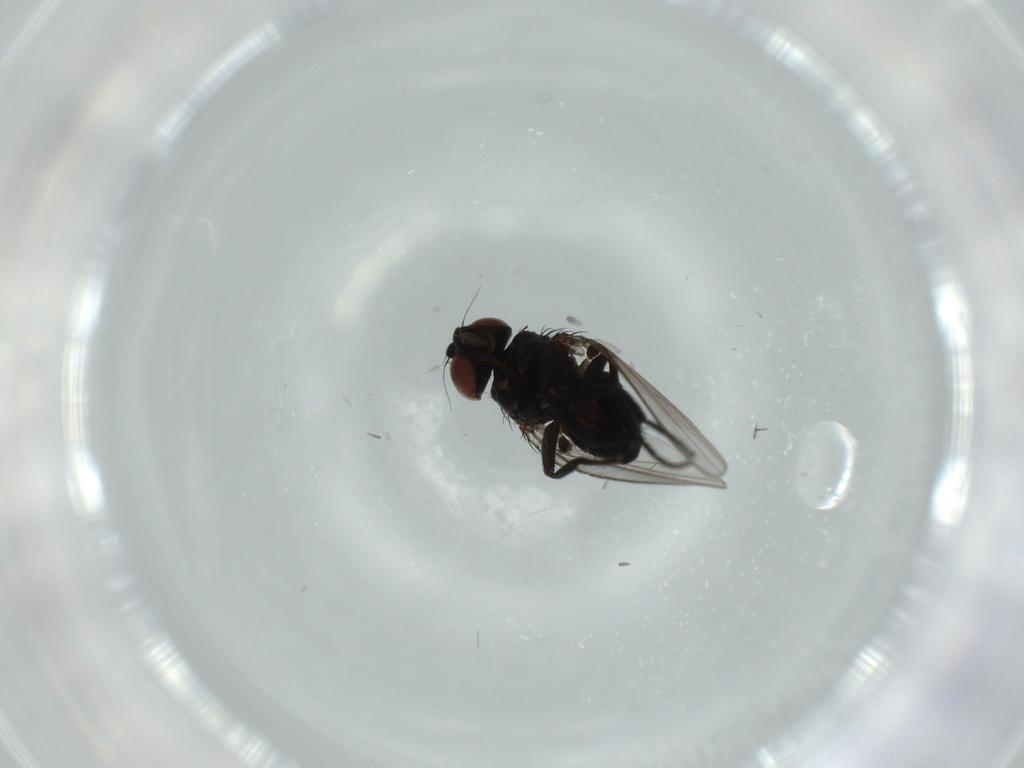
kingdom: Animalia
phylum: Arthropoda
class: Insecta
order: Diptera
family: Milichiidae
